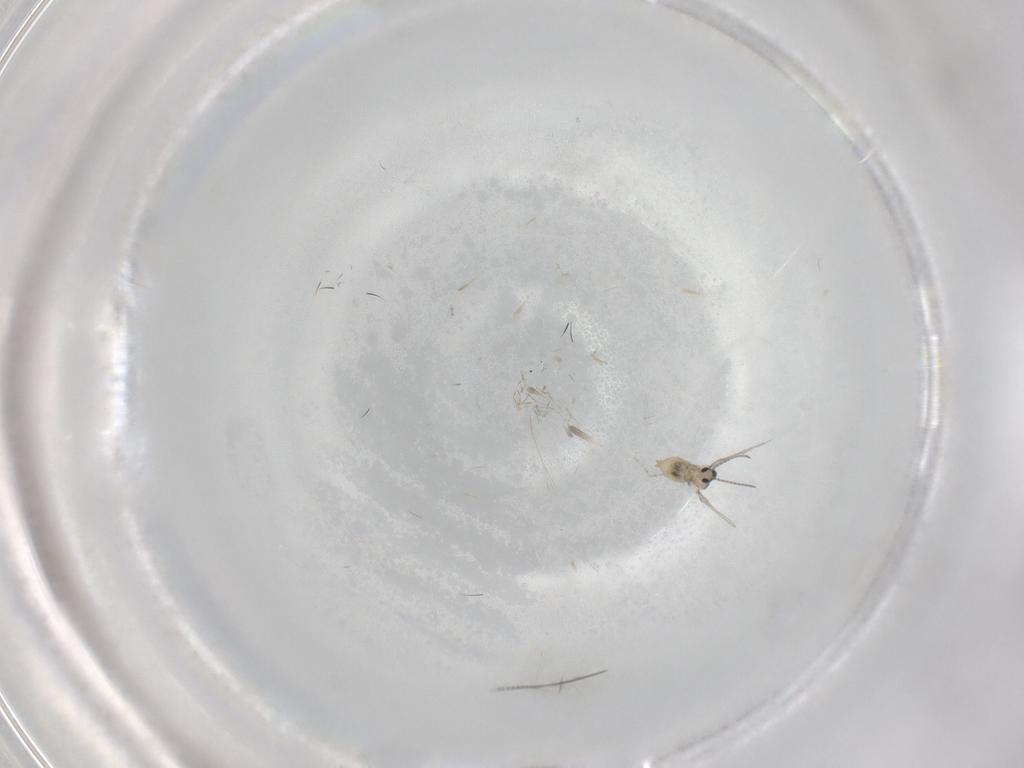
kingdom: Animalia
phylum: Arthropoda
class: Insecta
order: Diptera
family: Cecidomyiidae
